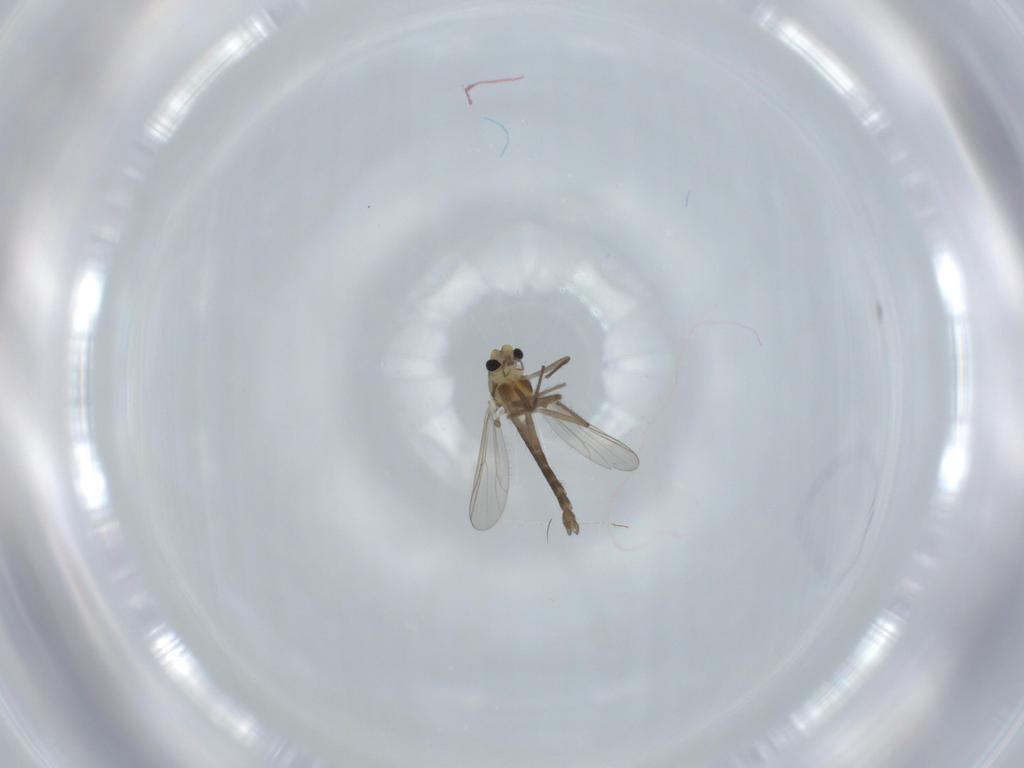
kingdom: Animalia
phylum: Arthropoda
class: Insecta
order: Diptera
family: Chironomidae
